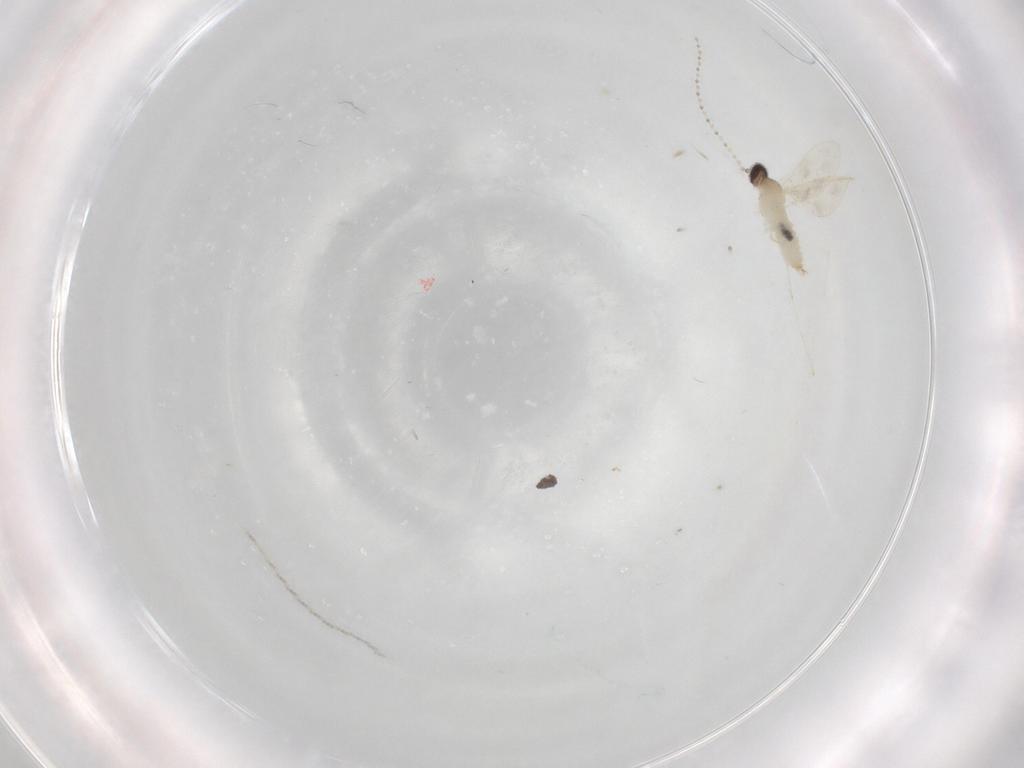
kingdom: Animalia
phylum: Arthropoda
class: Insecta
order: Diptera
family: Cecidomyiidae
